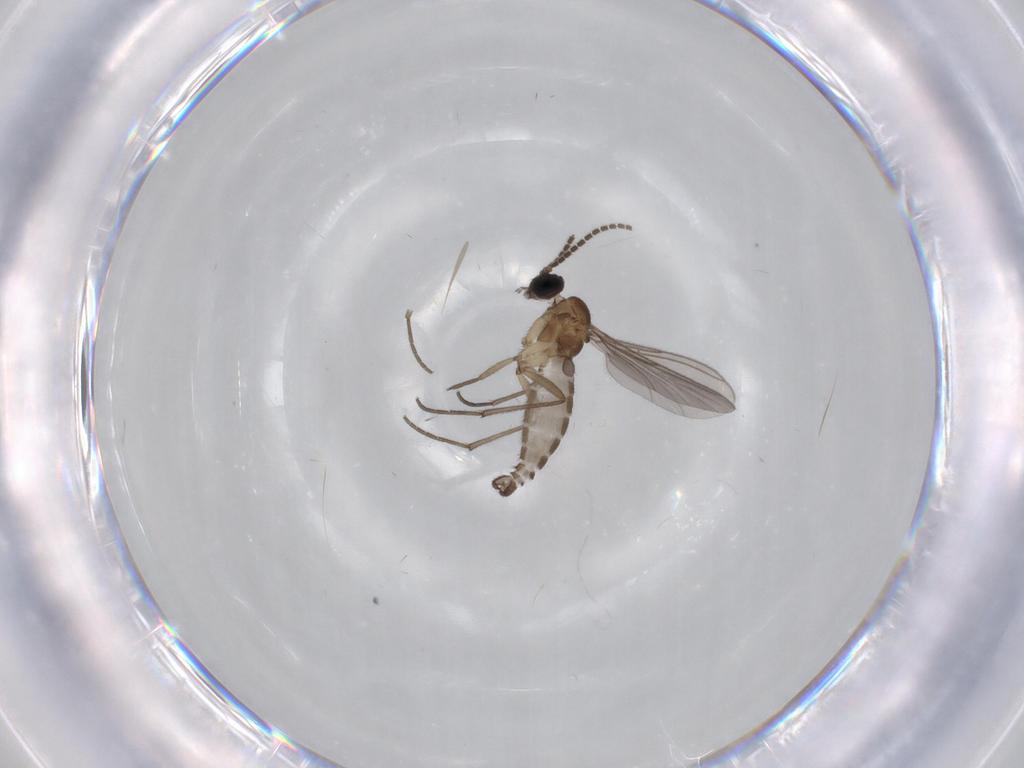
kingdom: Animalia
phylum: Arthropoda
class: Insecta
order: Diptera
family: Sciaridae
